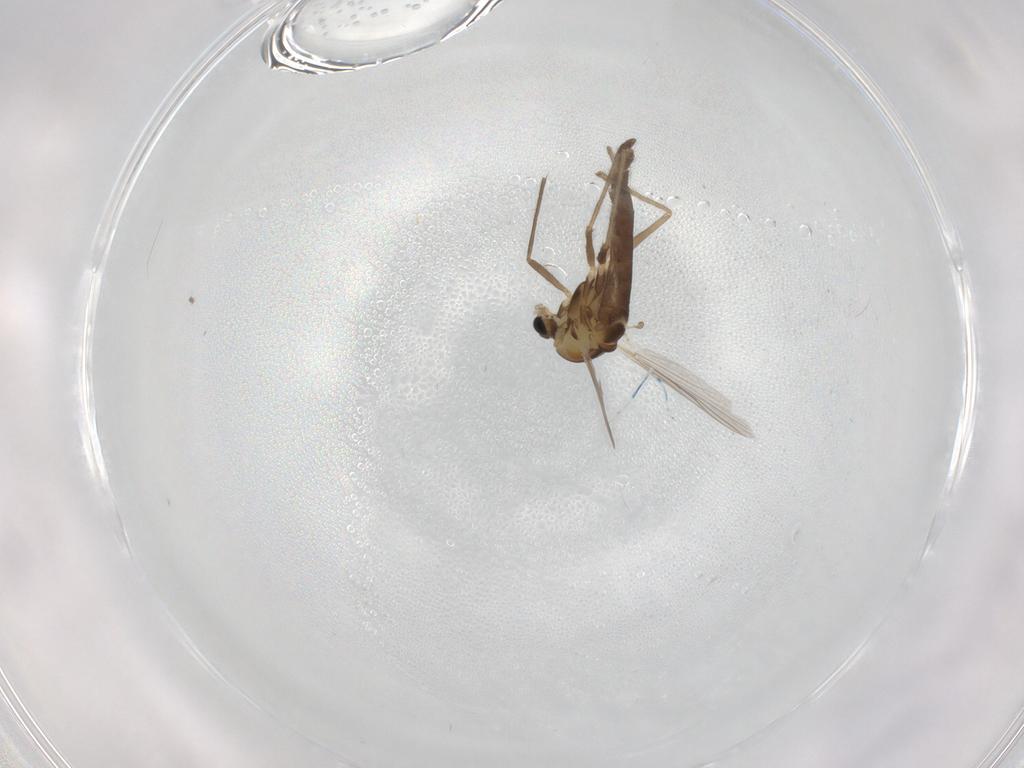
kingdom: Animalia
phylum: Arthropoda
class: Insecta
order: Diptera
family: Chironomidae
